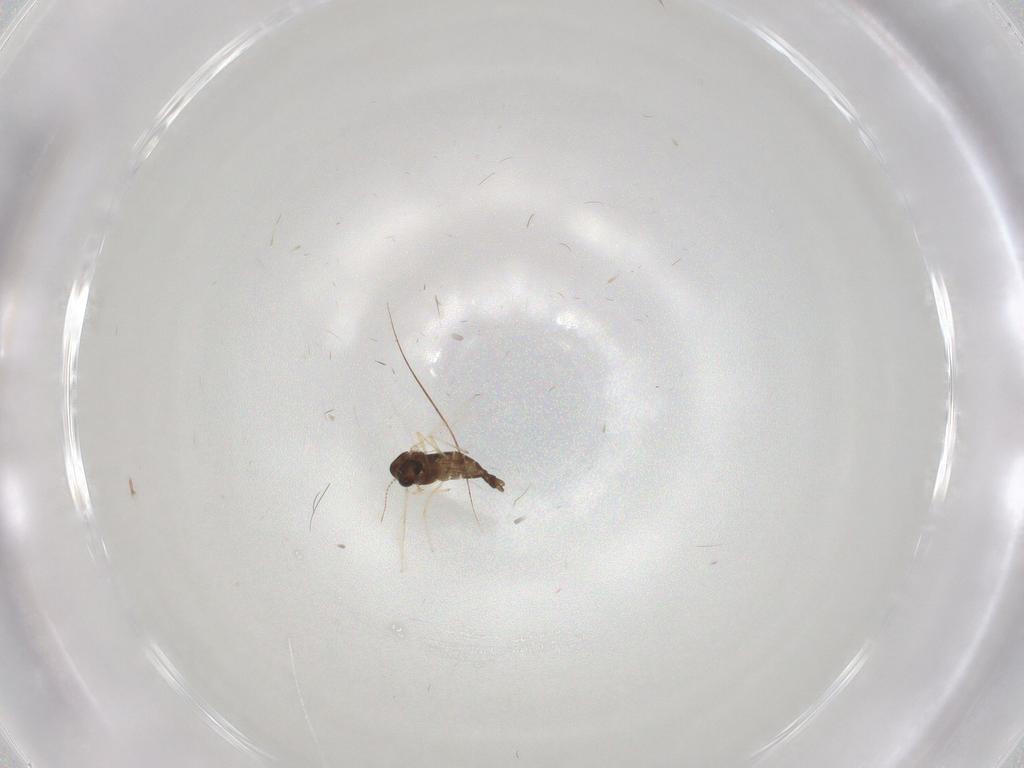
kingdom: Animalia
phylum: Arthropoda
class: Insecta
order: Diptera
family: Chironomidae
